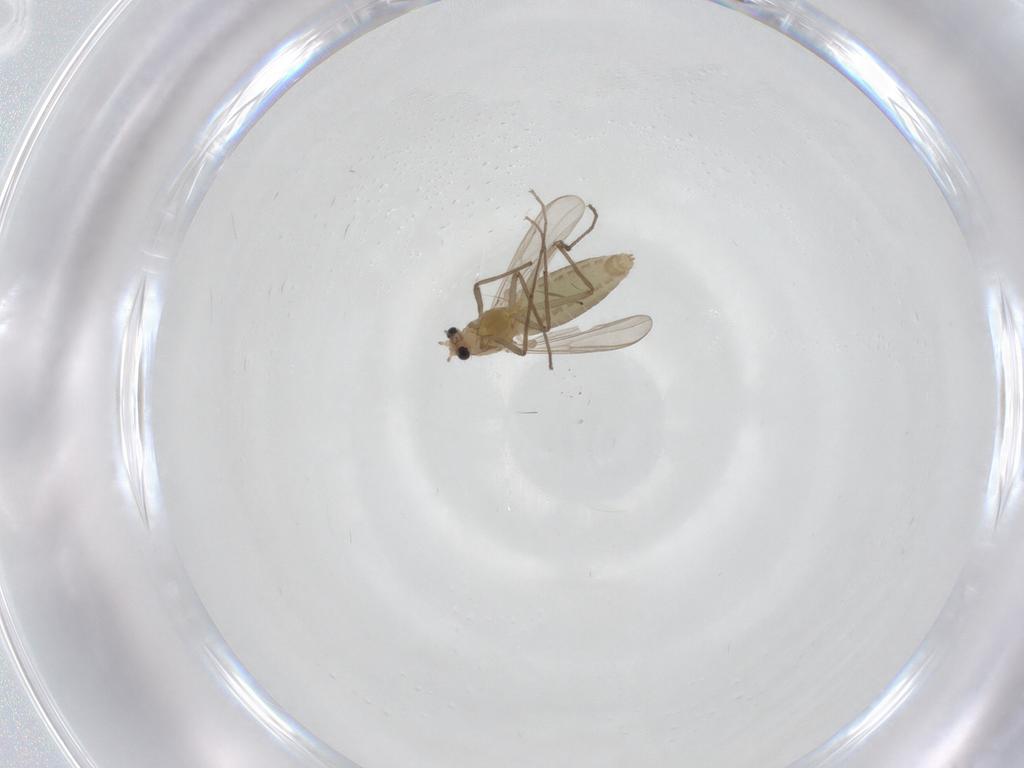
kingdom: Animalia
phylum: Arthropoda
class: Insecta
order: Diptera
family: Chironomidae
